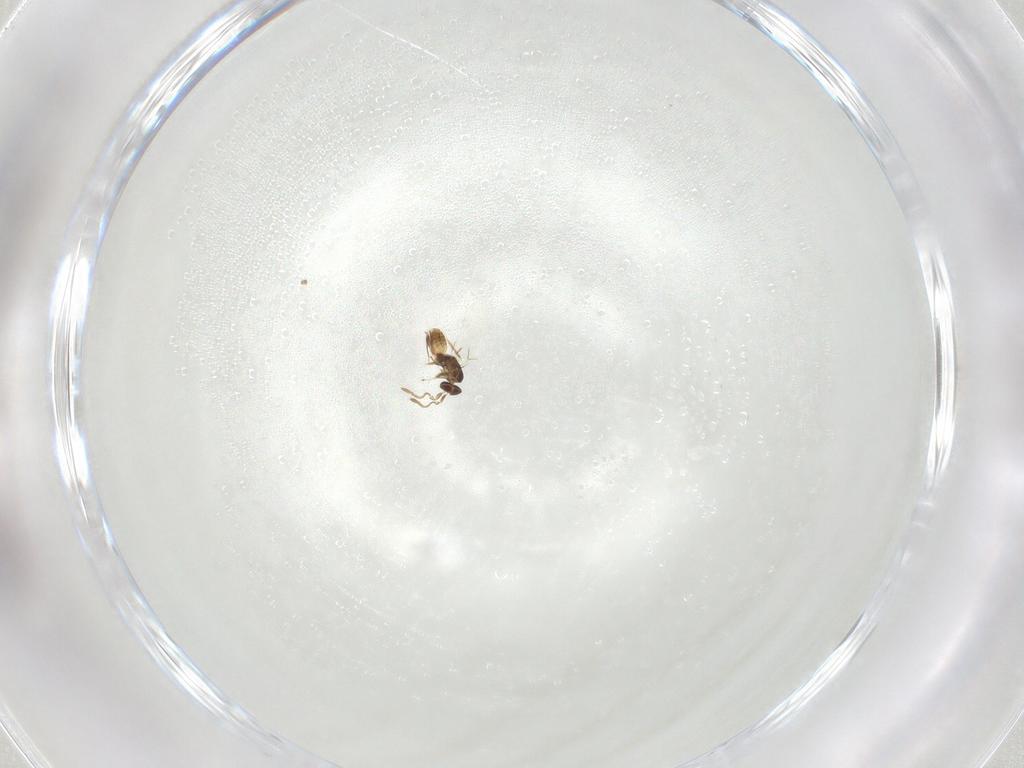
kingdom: Animalia
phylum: Arthropoda
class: Insecta
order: Hymenoptera
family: Mymaridae
